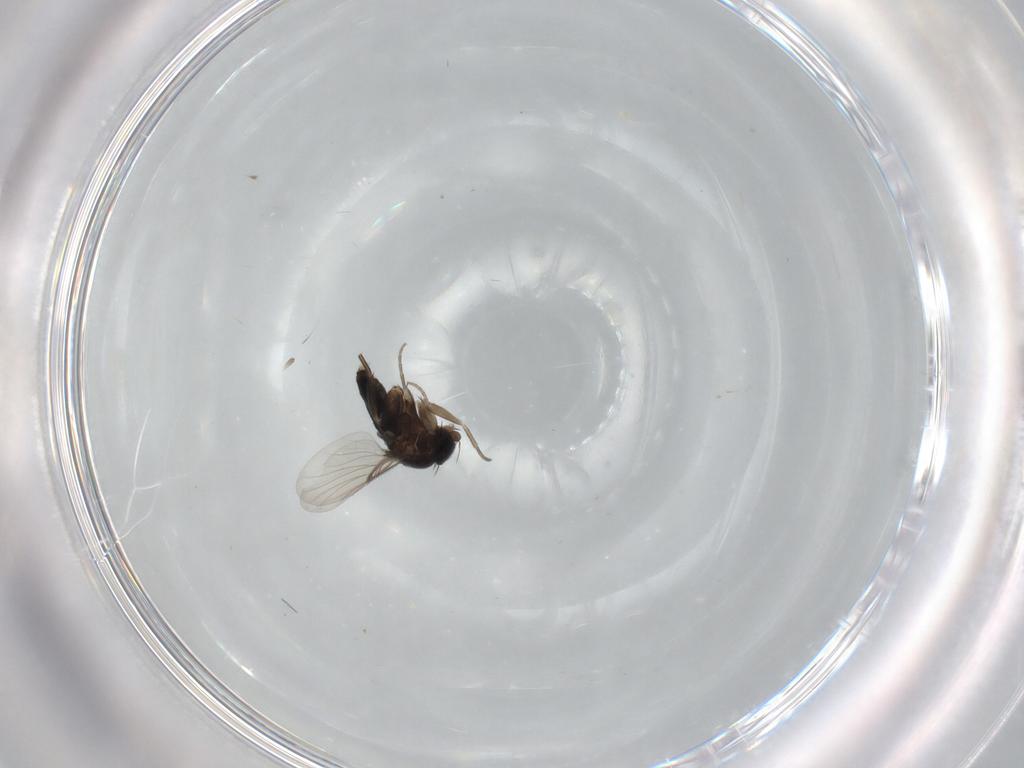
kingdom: Animalia
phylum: Arthropoda
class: Insecta
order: Diptera
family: Phoridae
